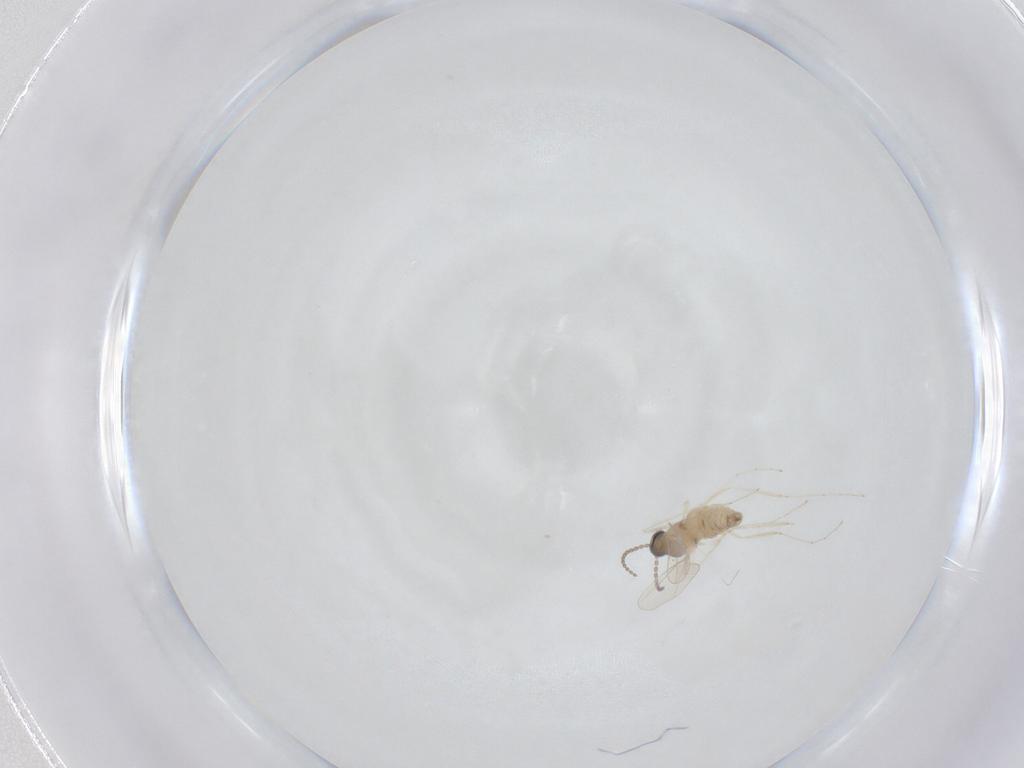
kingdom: Animalia
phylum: Arthropoda
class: Insecta
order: Diptera
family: Cecidomyiidae
